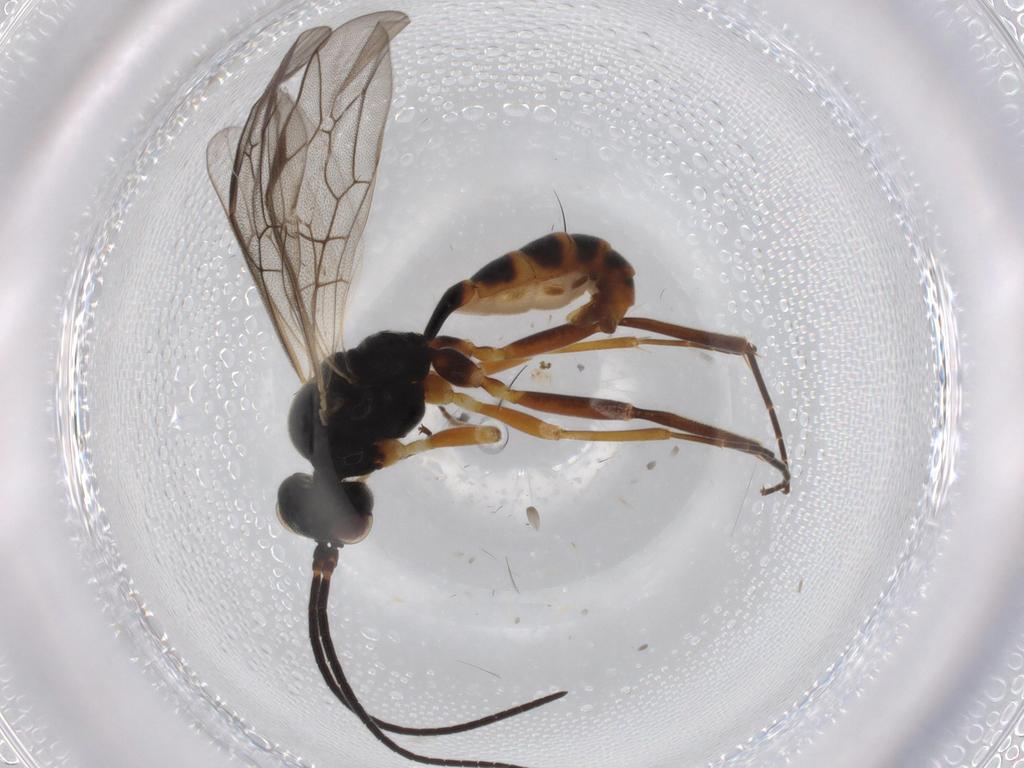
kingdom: Animalia
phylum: Arthropoda
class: Insecta
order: Hymenoptera
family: Ichneumonidae
